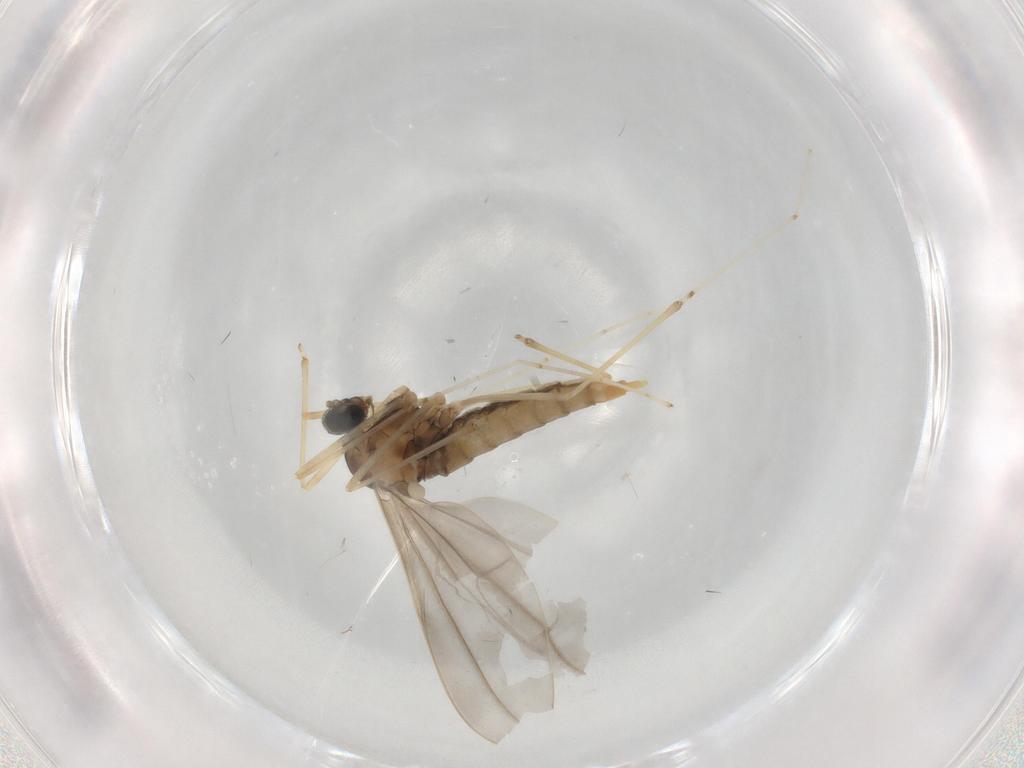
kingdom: Animalia
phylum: Arthropoda
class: Insecta
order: Diptera
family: Cecidomyiidae
